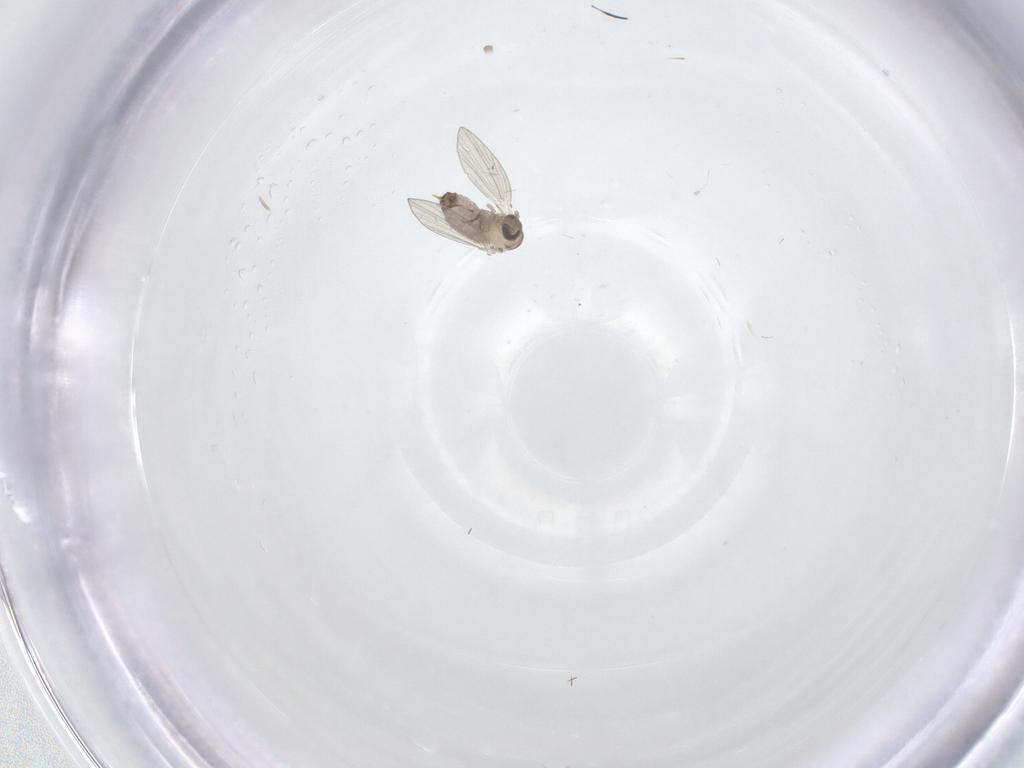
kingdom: Animalia
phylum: Arthropoda
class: Insecta
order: Diptera
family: Psychodidae
